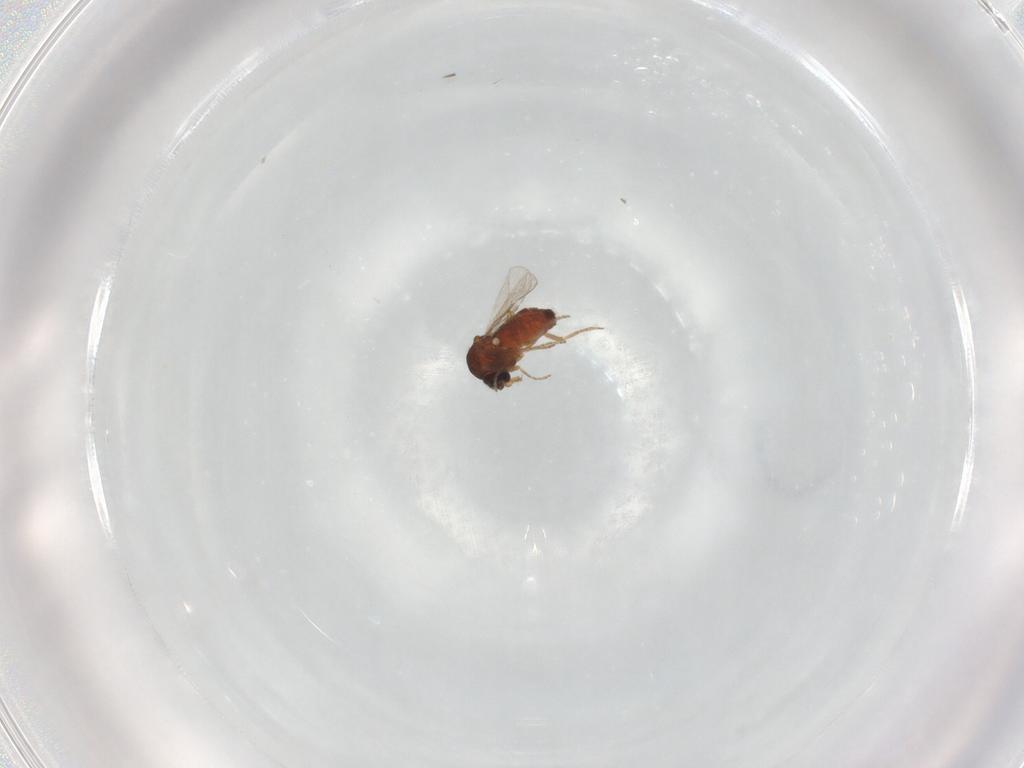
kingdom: Animalia
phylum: Arthropoda
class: Insecta
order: Diptera
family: Ceratopogonidae
